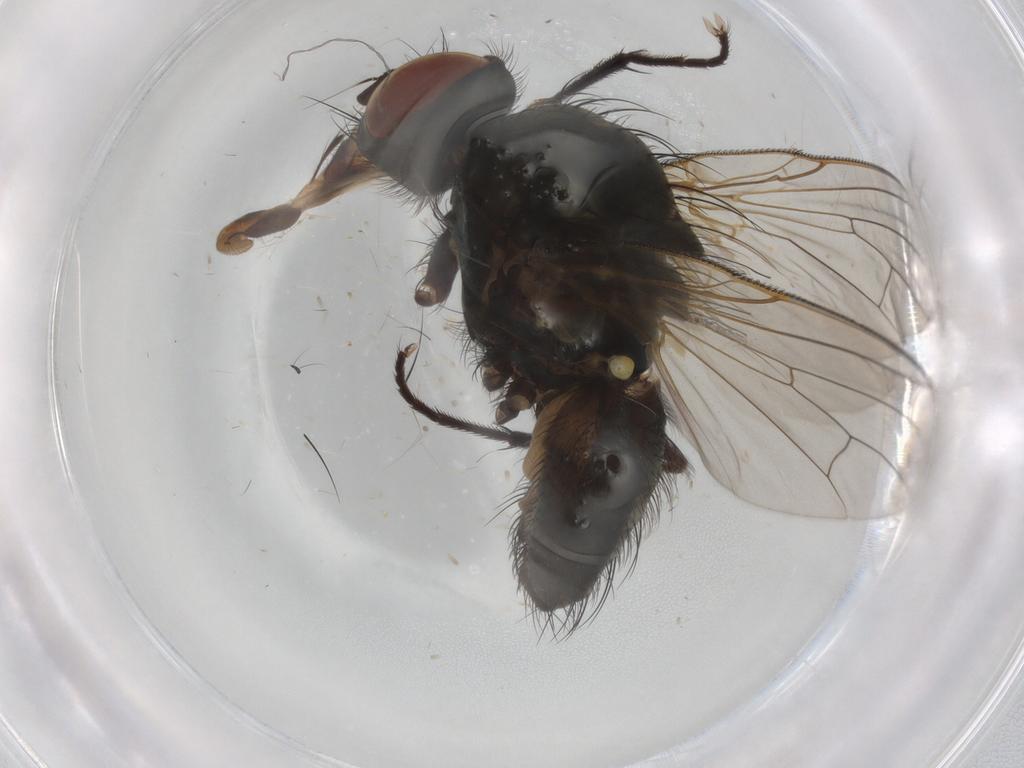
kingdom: Animalia
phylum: Arthropoda
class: Insecta
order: Diptera
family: Anthomyiidae
